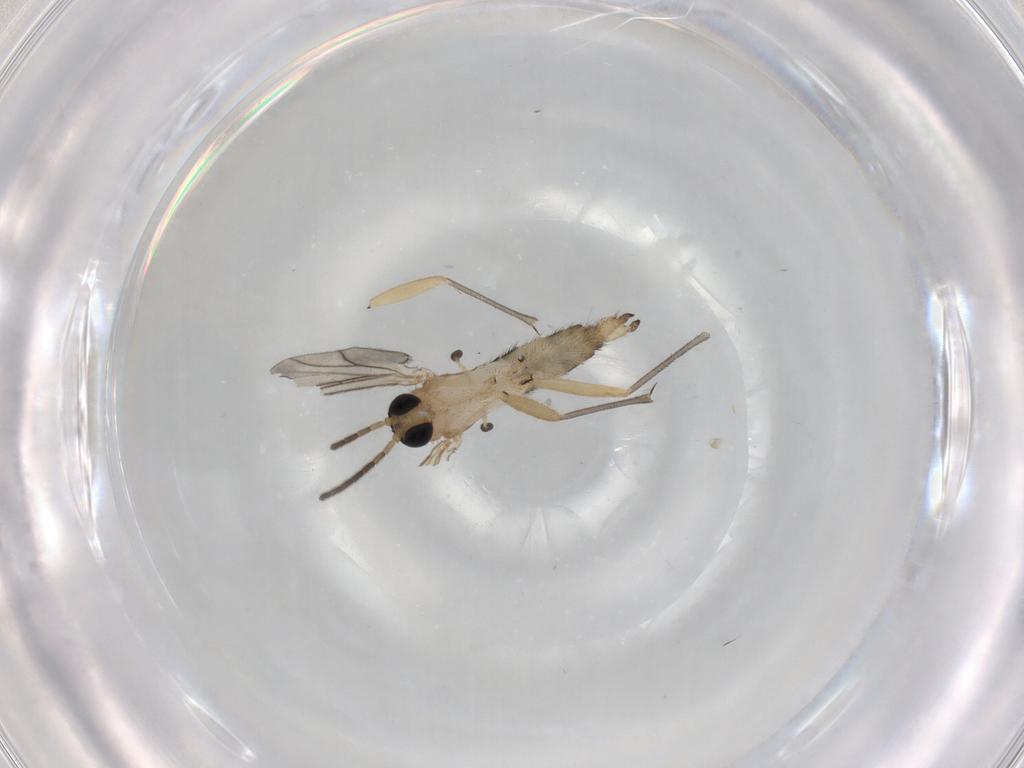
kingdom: Animalia
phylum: Arthropoda
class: Insecta
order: Diptera
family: Sciaridae
